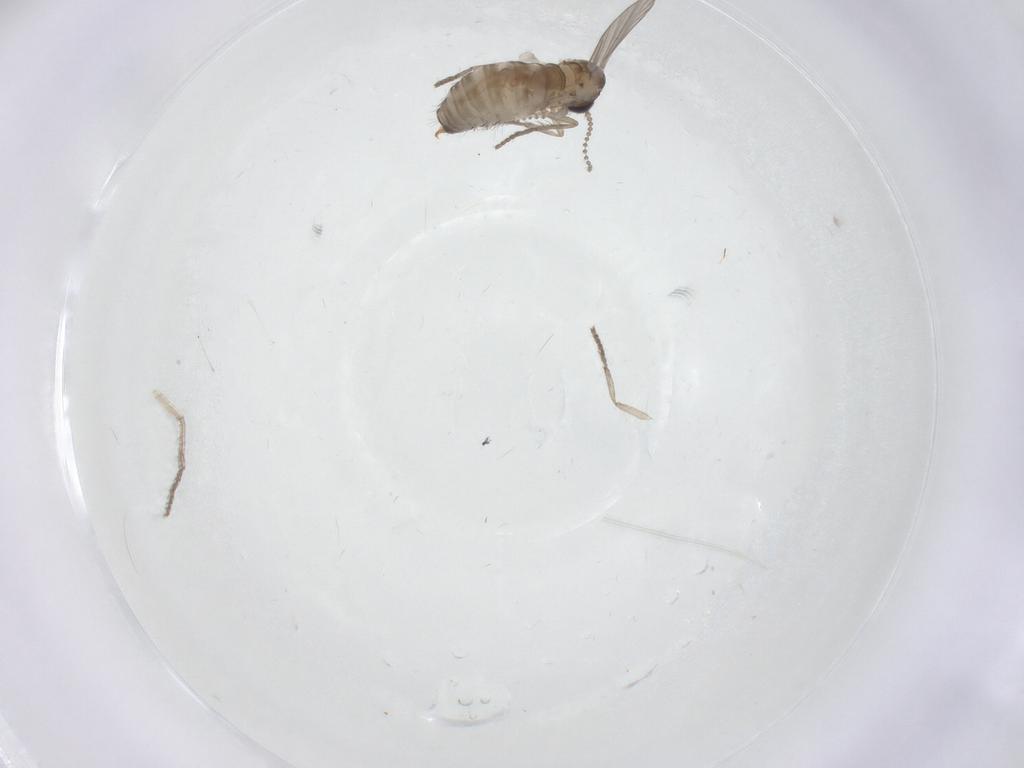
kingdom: Animalia
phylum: Arthropoda
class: Insecta
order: Diptera
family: Psychodidae
